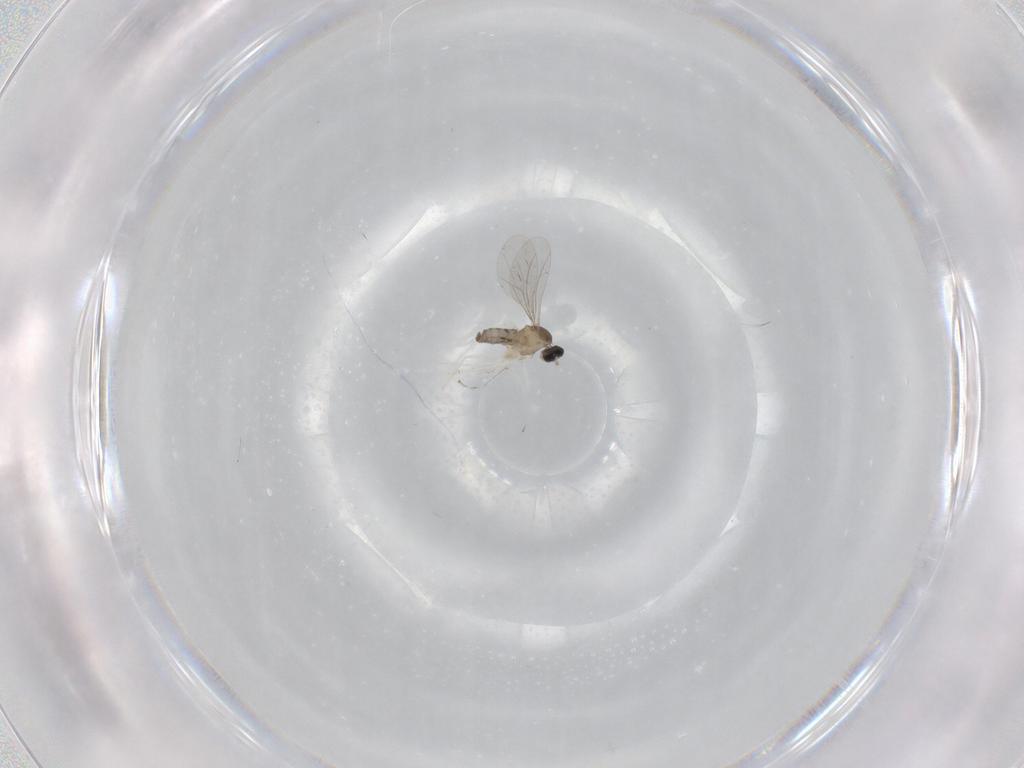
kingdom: Animalia
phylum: Arthropoda
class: Insecta
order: Diptera
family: Cecidomyiidae
